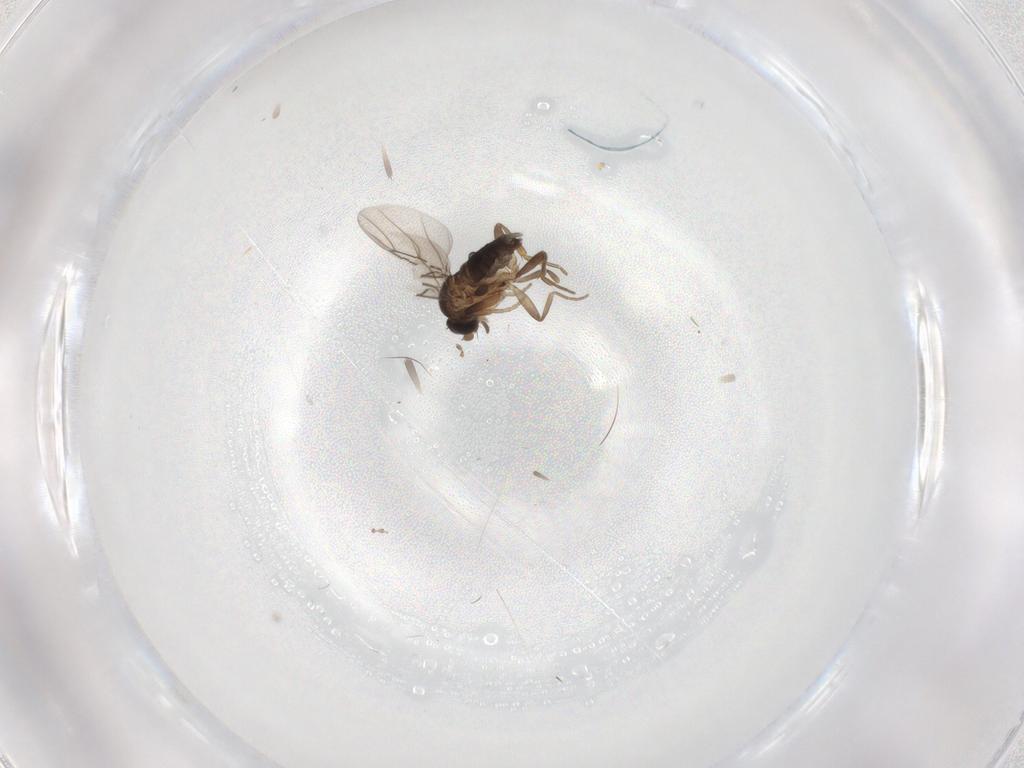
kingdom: Animalia
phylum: Arthropoda
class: Insecta
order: Diptera
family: Phoridae
